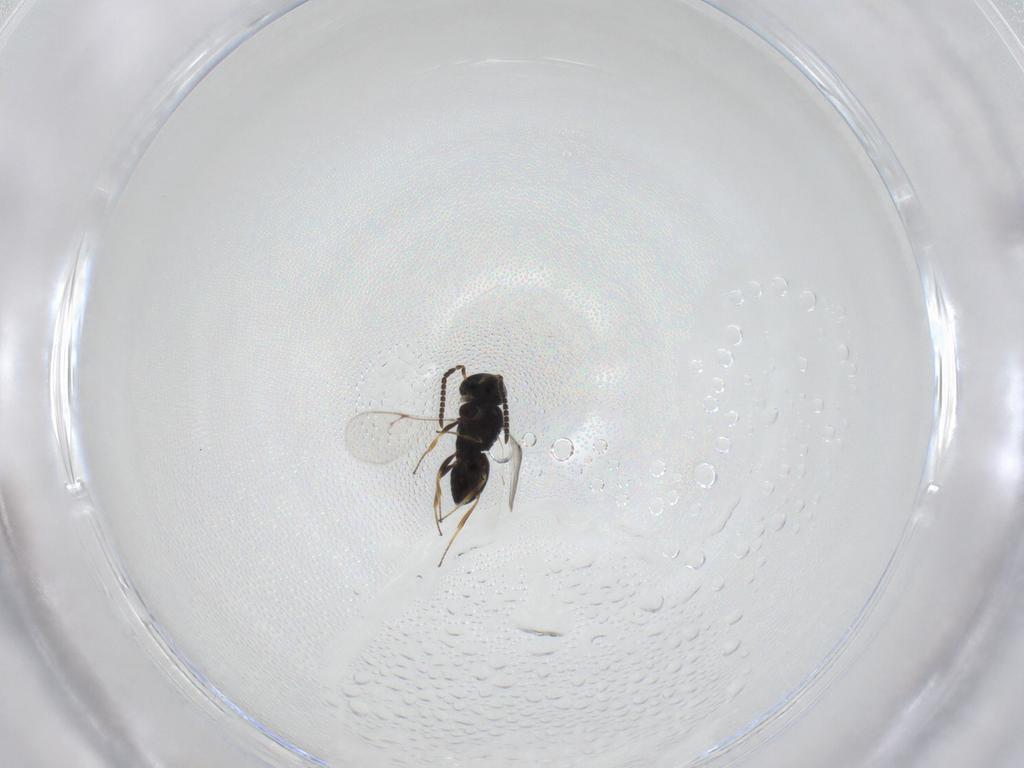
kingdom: Animalia
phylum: Arthropoda
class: Insecta
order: Hymenoptera
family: Scelionidae
